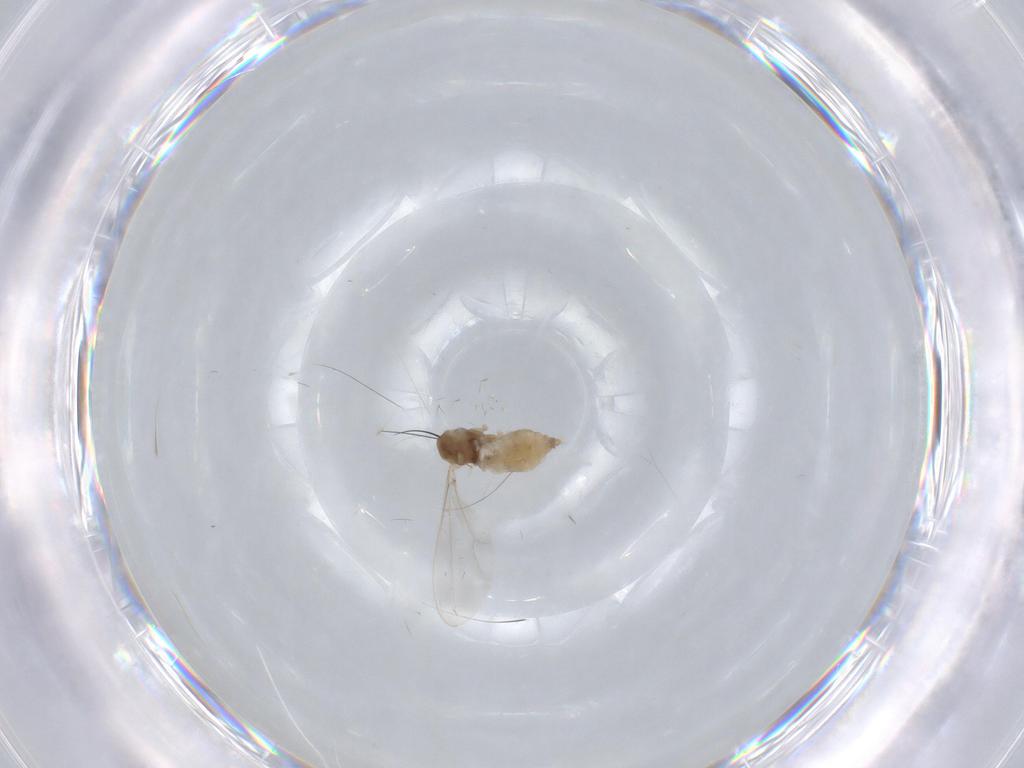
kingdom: Animalia
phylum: Arthropoda
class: Insecta
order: Diptera
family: Cecidomyiidae
